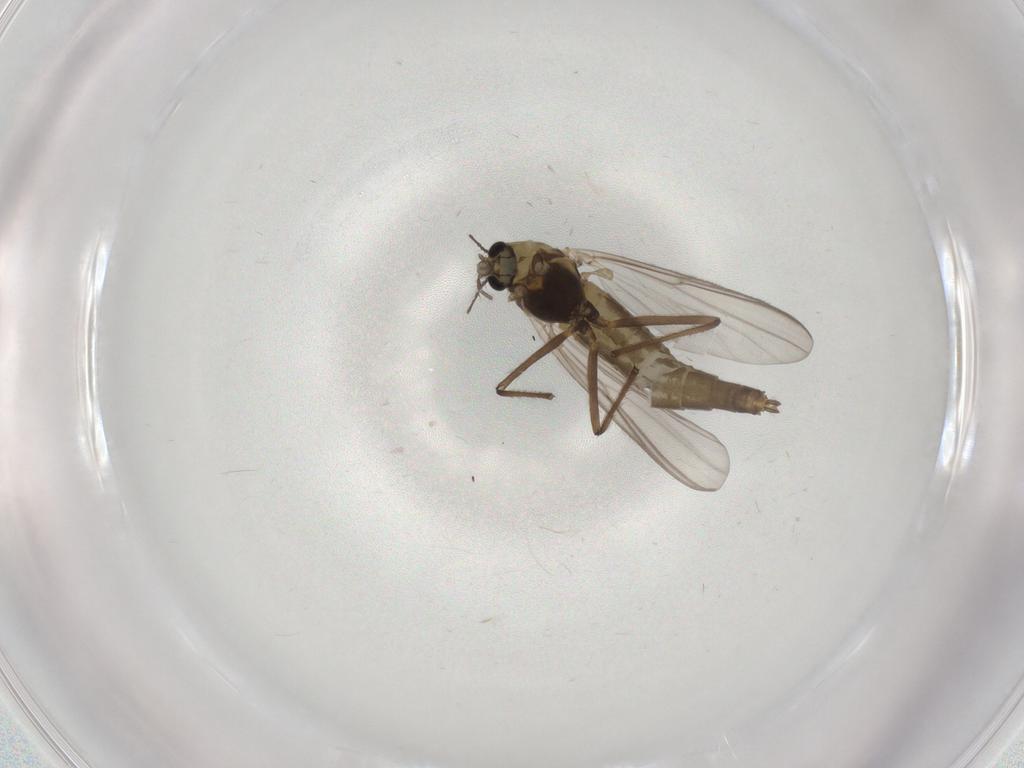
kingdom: Animalia
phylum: Arthropoda
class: Insecta
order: Diptera
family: Chironomidae
